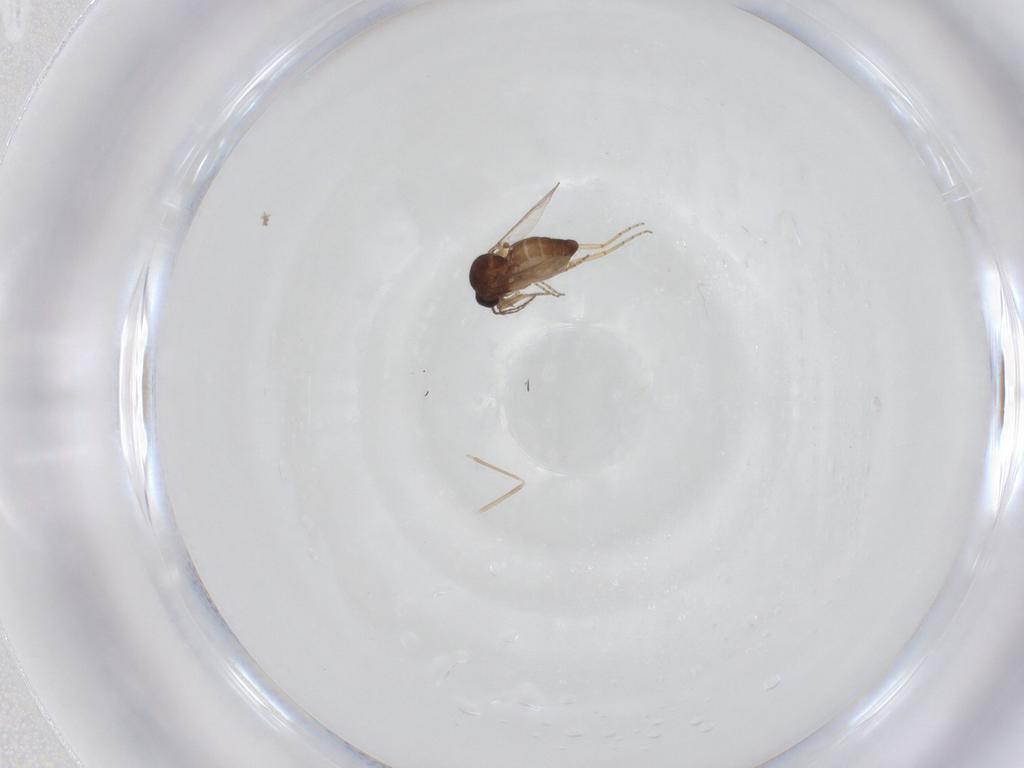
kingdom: Animalia
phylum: Arthropoda
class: Insecta
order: Diptera
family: Ceratopogonidae
